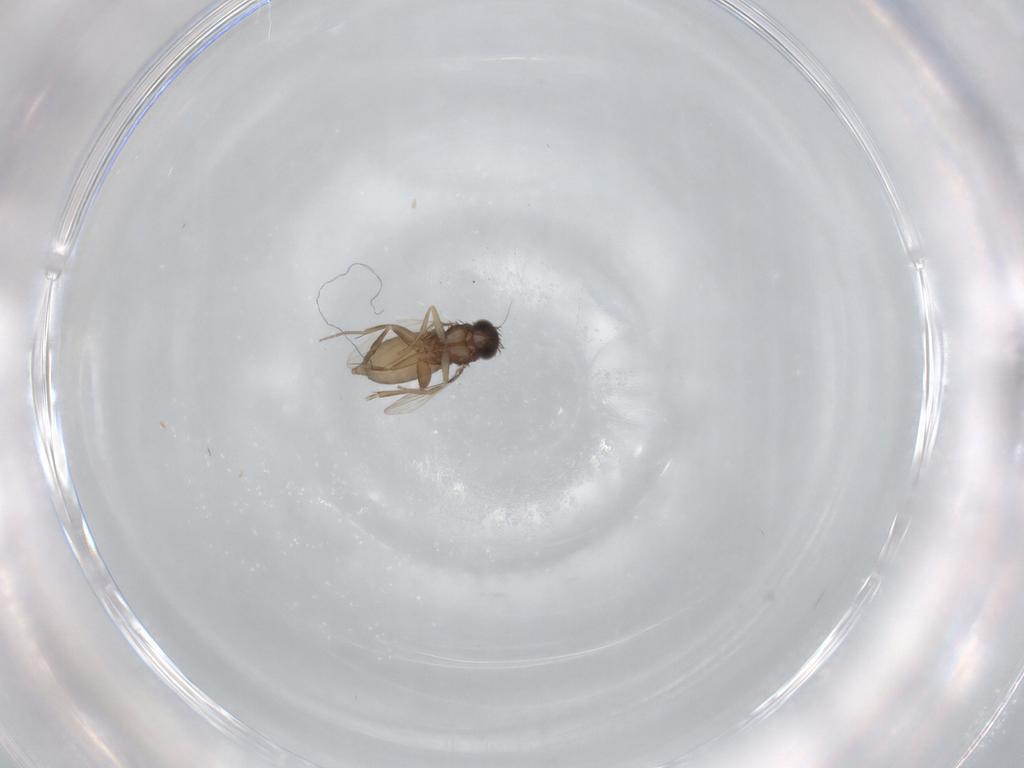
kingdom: Animalia
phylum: Arthropoda
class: Insecta
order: Diptera
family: Phoridae
